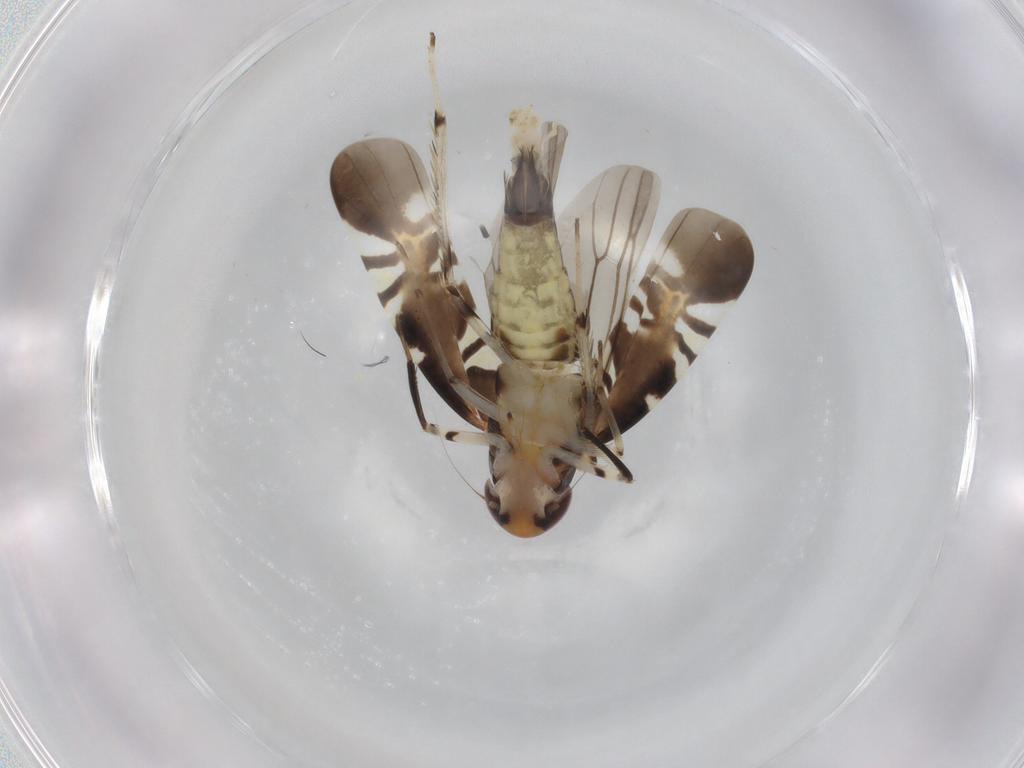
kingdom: Animalia
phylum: Arthropoda
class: Insecta
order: Hemiptera
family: Cicadellidae
